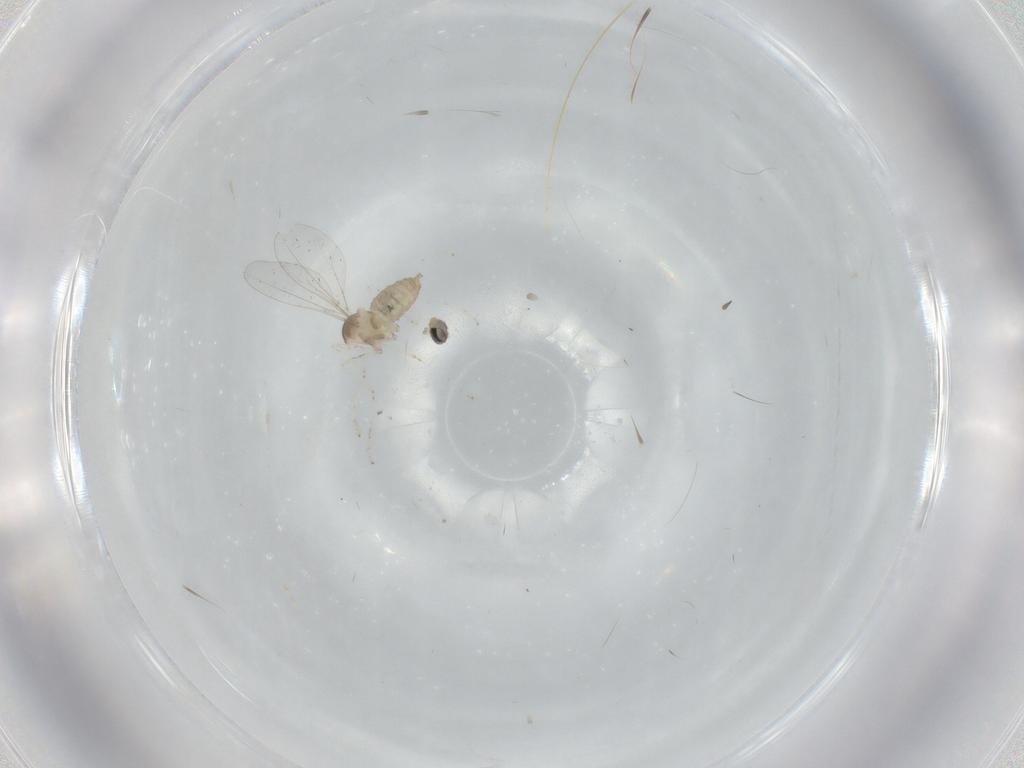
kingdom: Animalia
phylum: Arthropoda
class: Insecta
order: Diptera
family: Cecidomyiidae
